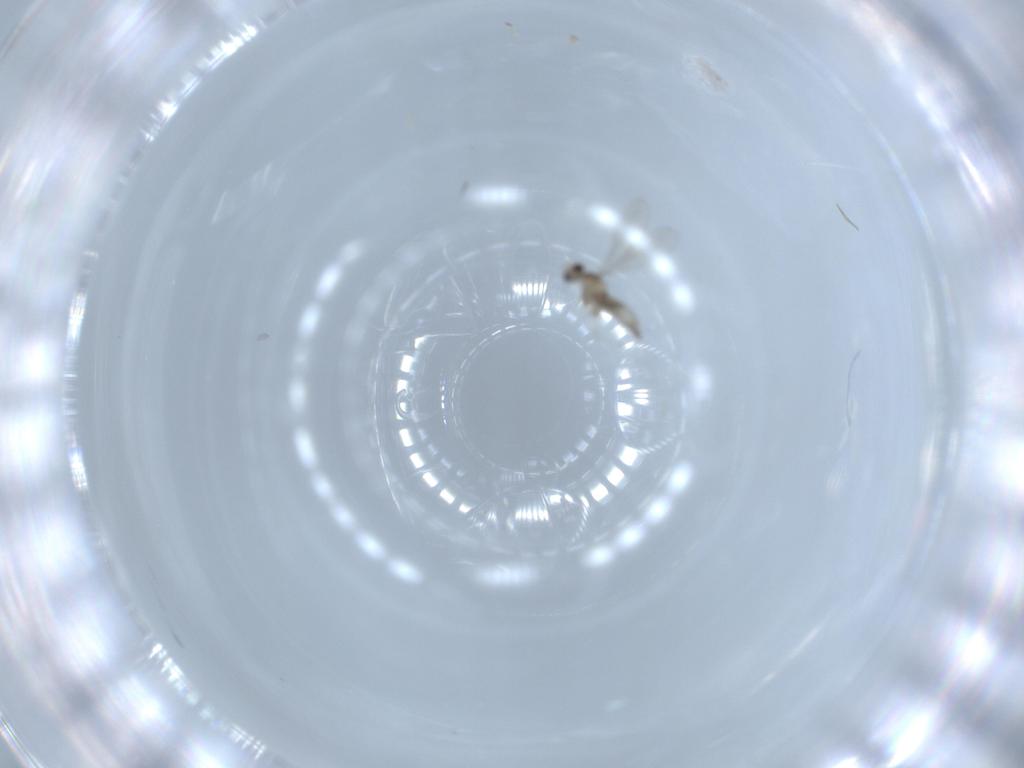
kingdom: Animalia
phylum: Arthropoda
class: Insecta
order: Diptera
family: Cecidomyiidae
